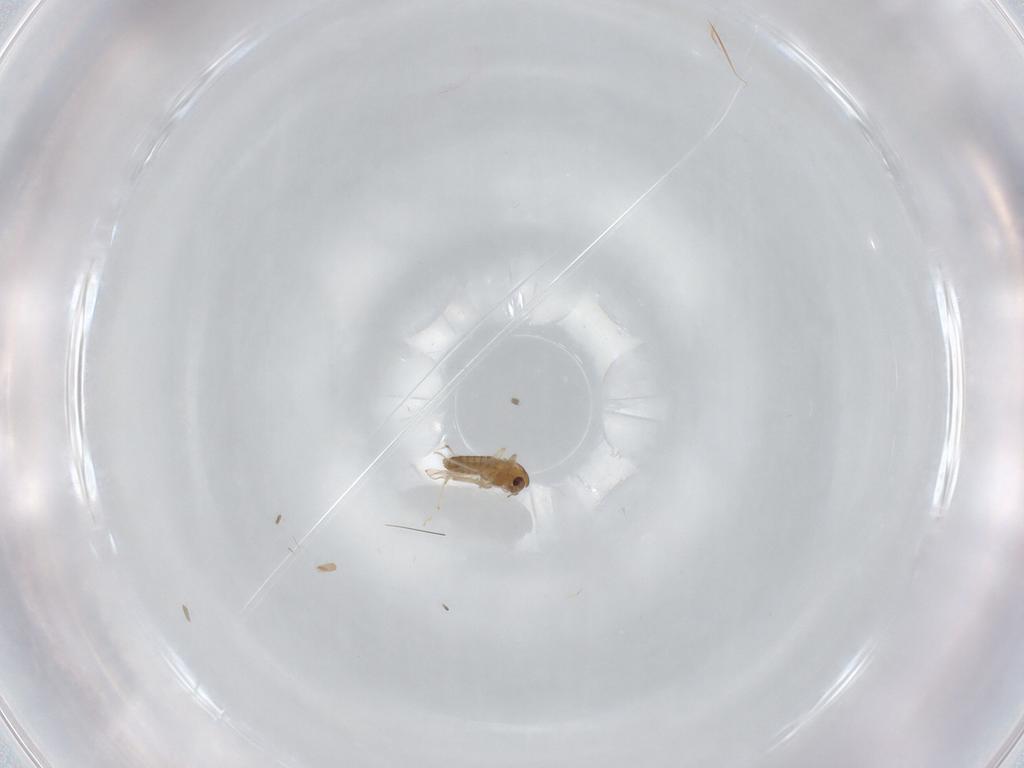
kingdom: Animalia
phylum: Arthropoda
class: Insecta
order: Diptera
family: Chironomidae
